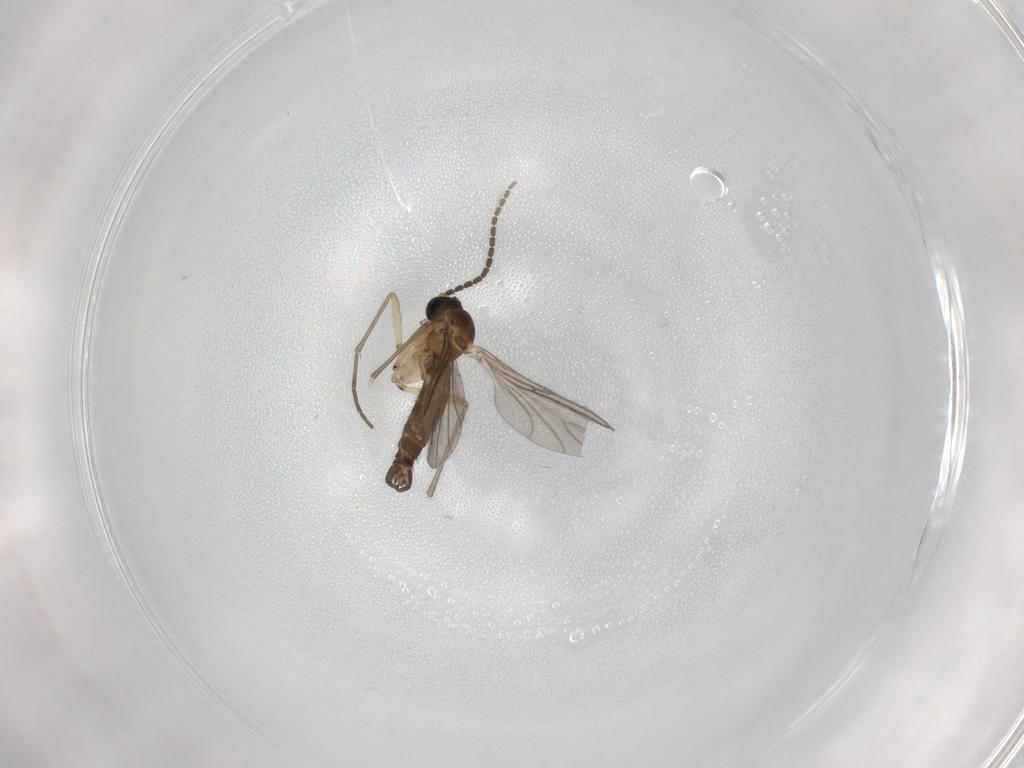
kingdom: Animalia
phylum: Arthropoda
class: Insecta
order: Diptera
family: Sciaridae
